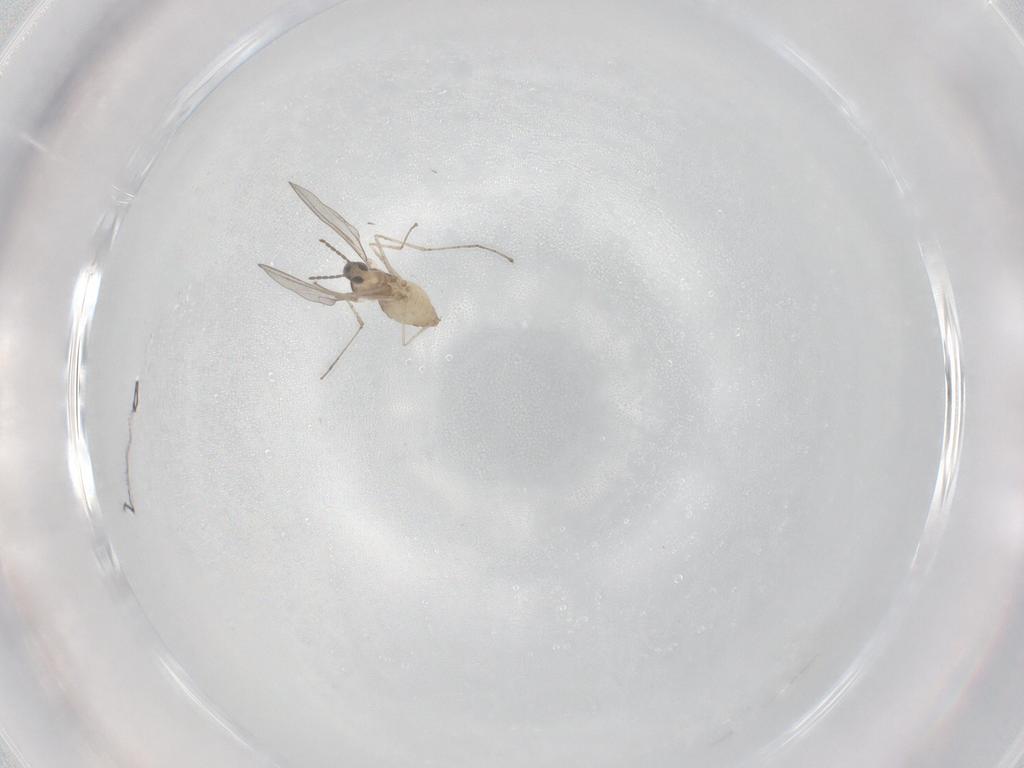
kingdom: Animalia
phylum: Arthropoda
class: Insecta
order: Diptera
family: Cecidomyiidae
